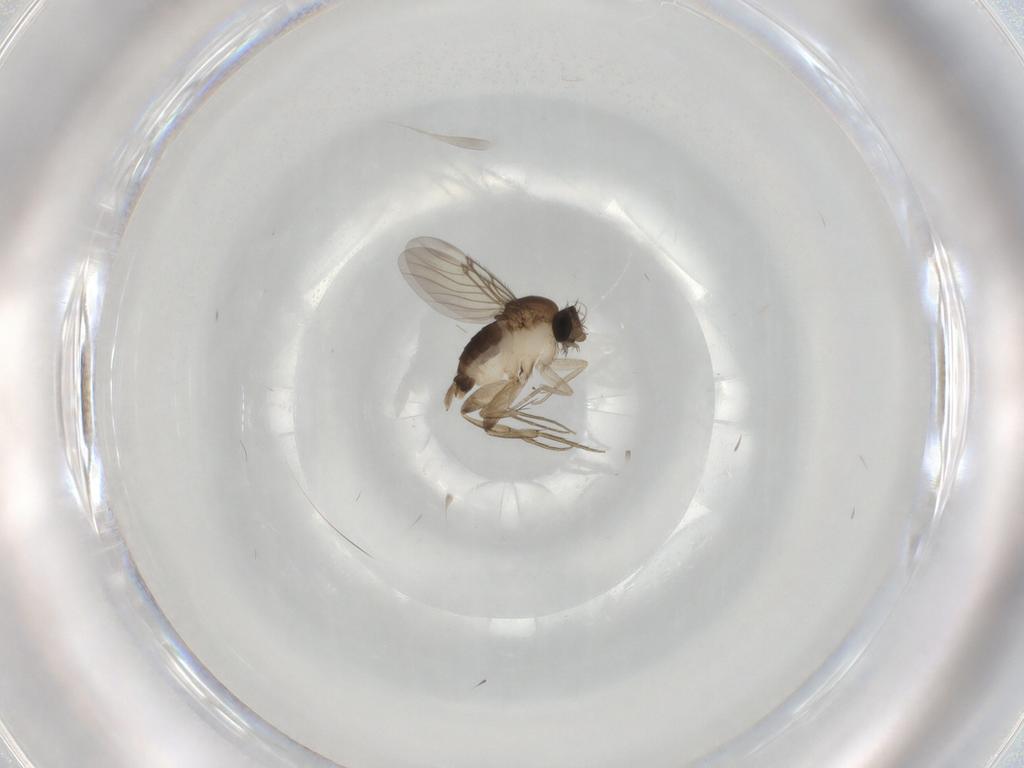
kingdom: Animalia
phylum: Arthropoda
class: Insecta
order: Diptera
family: Phoridae
